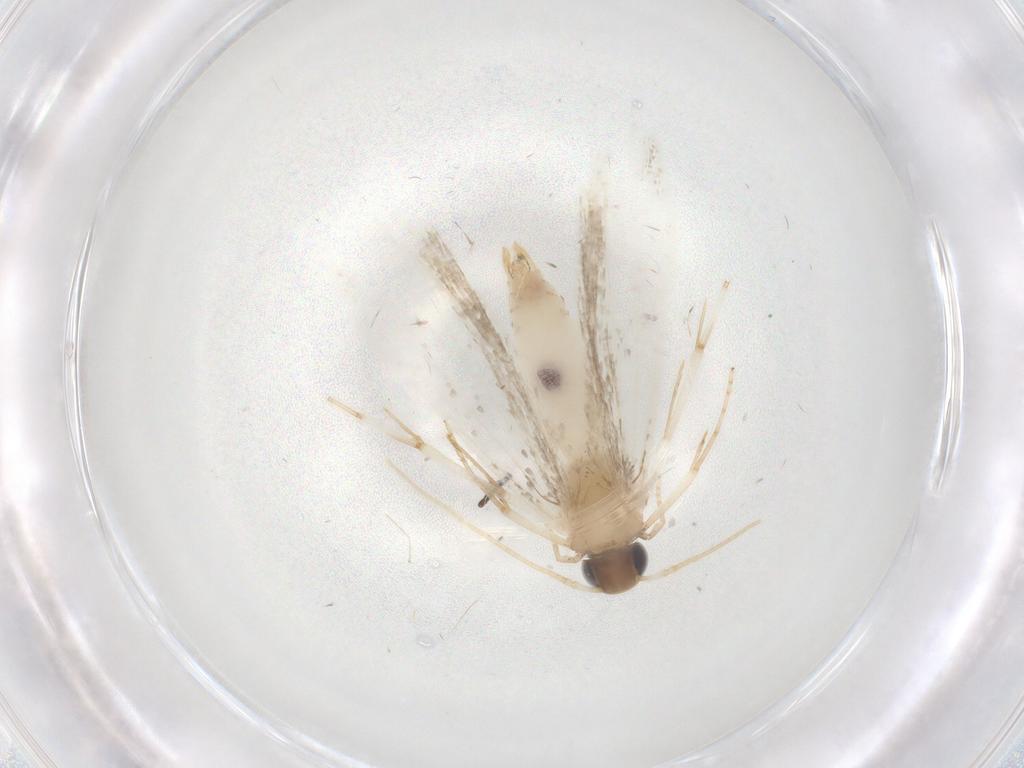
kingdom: Animalia
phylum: Arthropoda
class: Insecta
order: Lepidoptera
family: Gelechiidae
